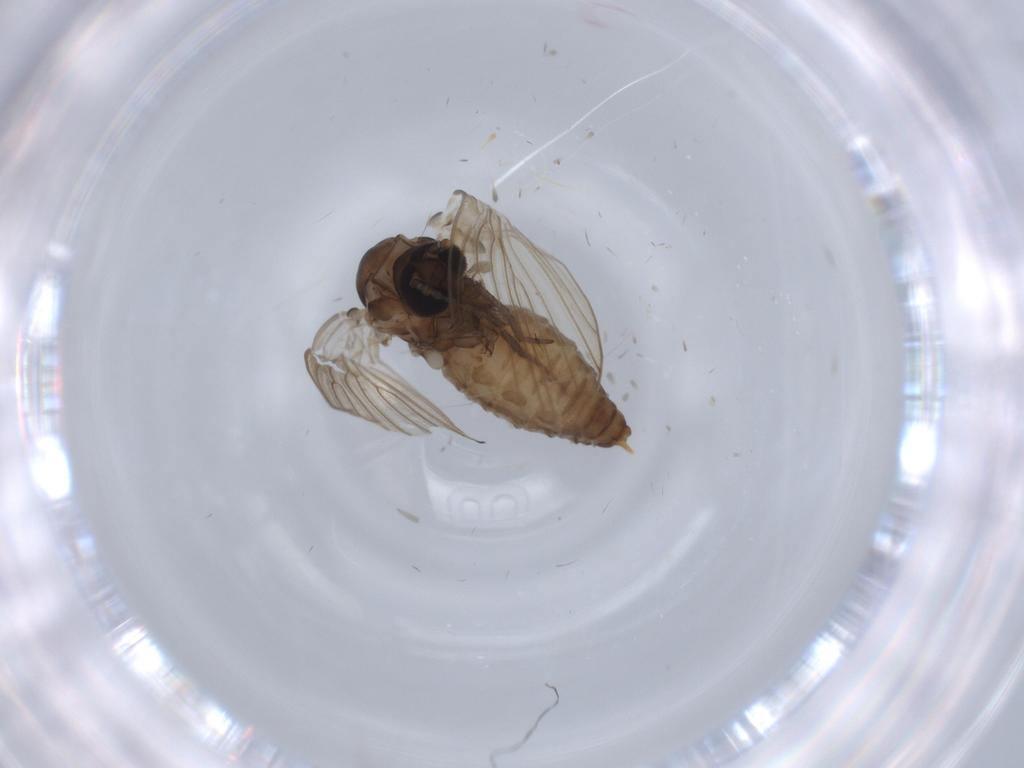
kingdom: Animalia
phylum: Arthropoda
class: Insecta
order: Diptera
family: Psychodidae
